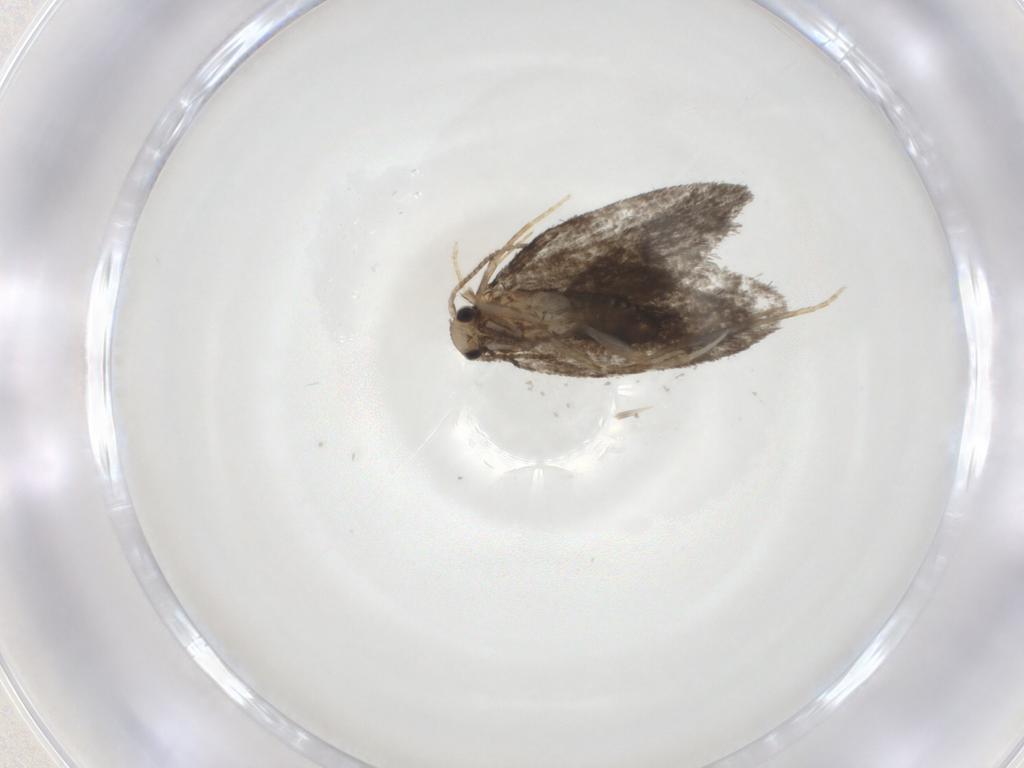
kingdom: Animalia
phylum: Arthropoda
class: Insecta
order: Lepidoptera
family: Psychidae
